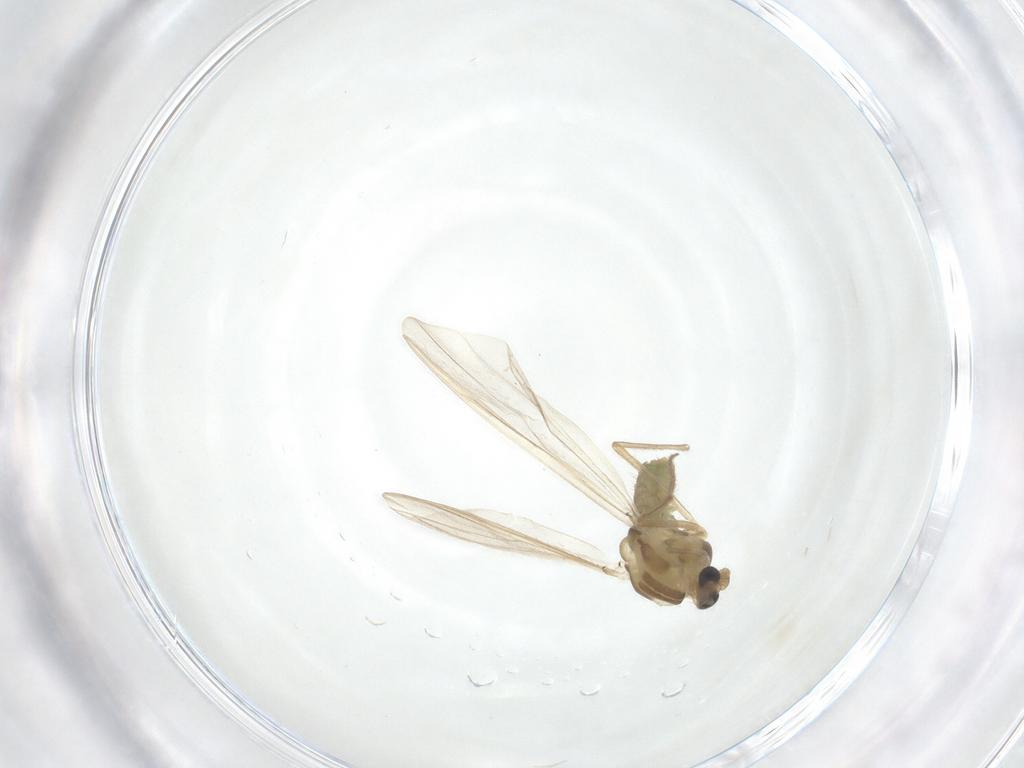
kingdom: Animalia
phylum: Arthropoda
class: Insecta
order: Diptera
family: Chironomidae
